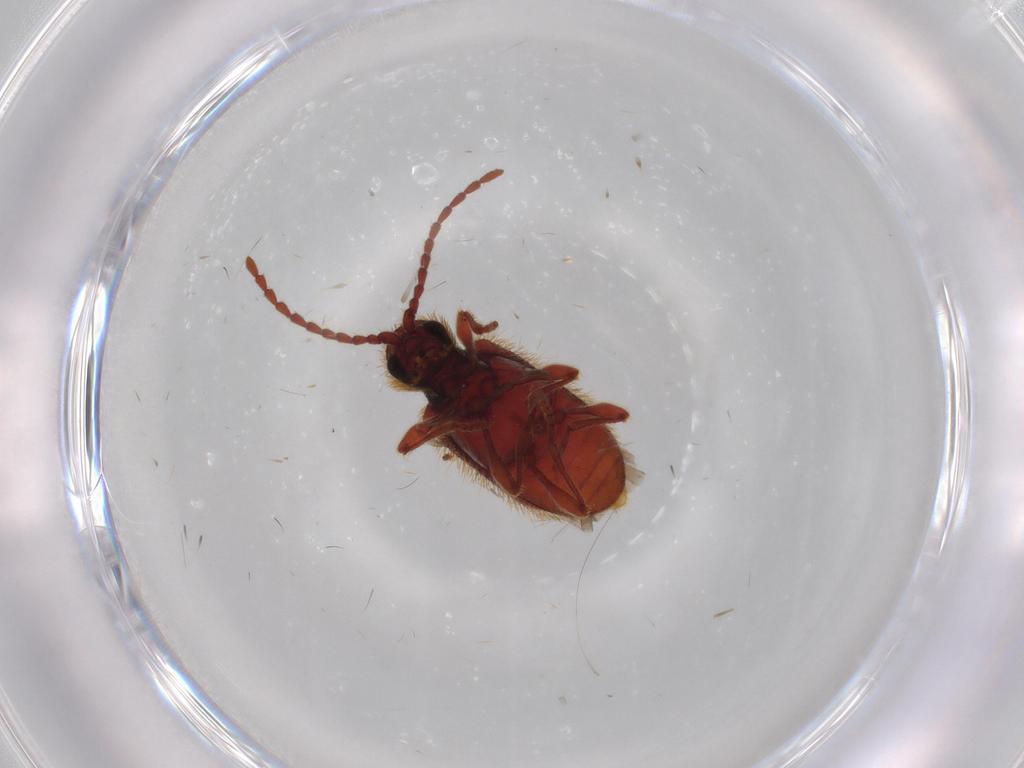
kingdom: Animalia
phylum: Arthropoda
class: Insecta
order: Coleoptera
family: Ptinidae
